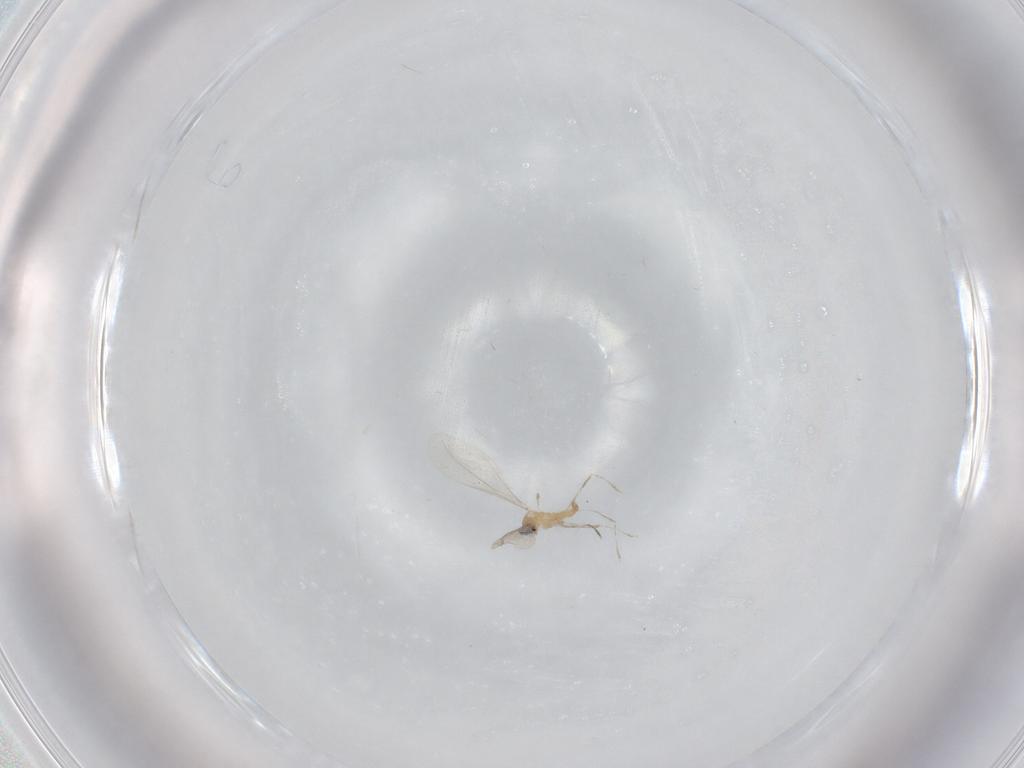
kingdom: Animalia
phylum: Arthropoda
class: Insecta
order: Diptera
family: Cecidomyiidae
